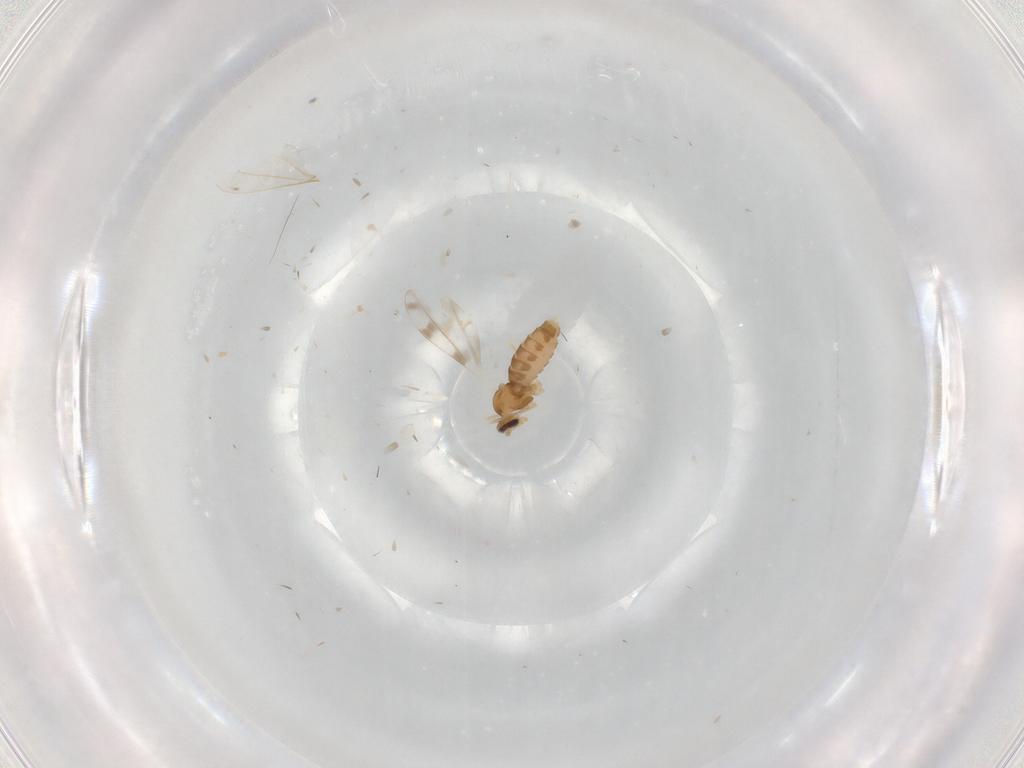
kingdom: Animalia
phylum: Arthropoda
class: Insecta
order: Diptera
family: Cecidomyiidae
